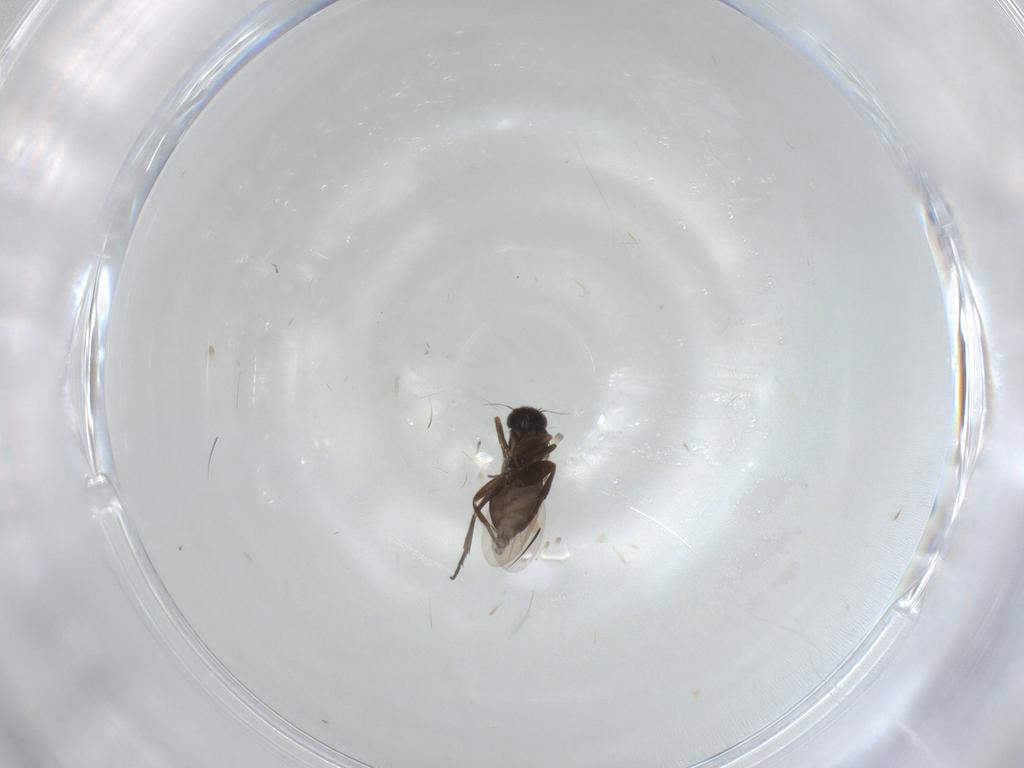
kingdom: Animalia
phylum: Arthropoda
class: Insecta
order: Diptera
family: Phoridae
